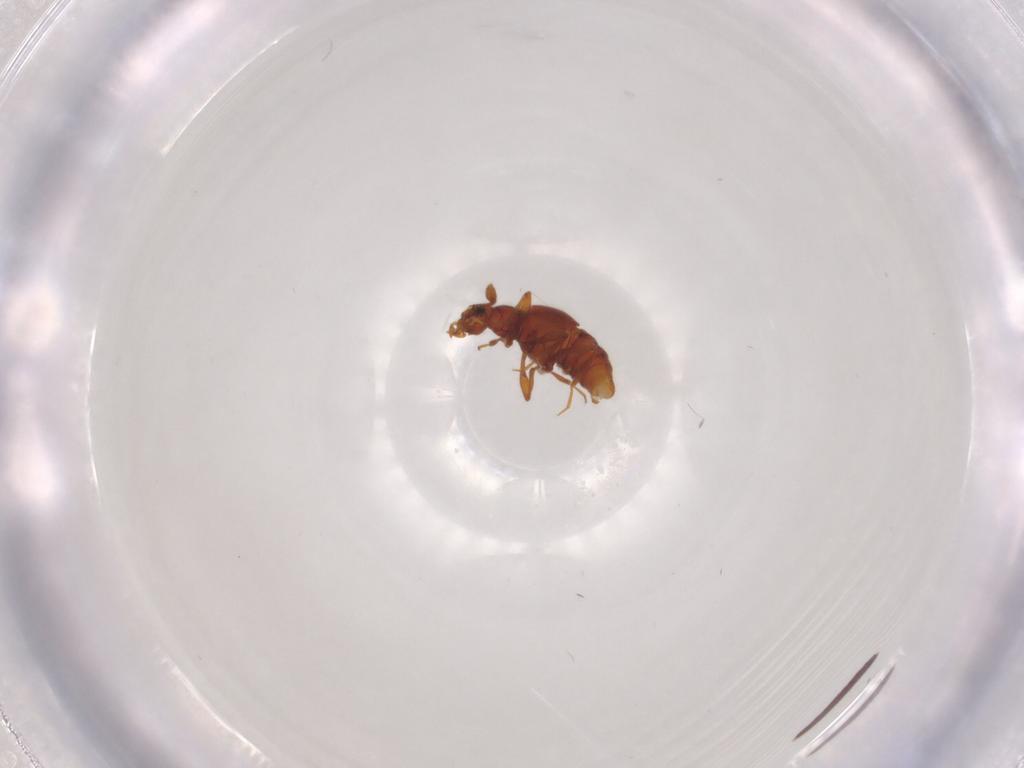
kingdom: Animalia
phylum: Arthropoda
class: Insecta
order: Coleoptera
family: Staphylinidae
